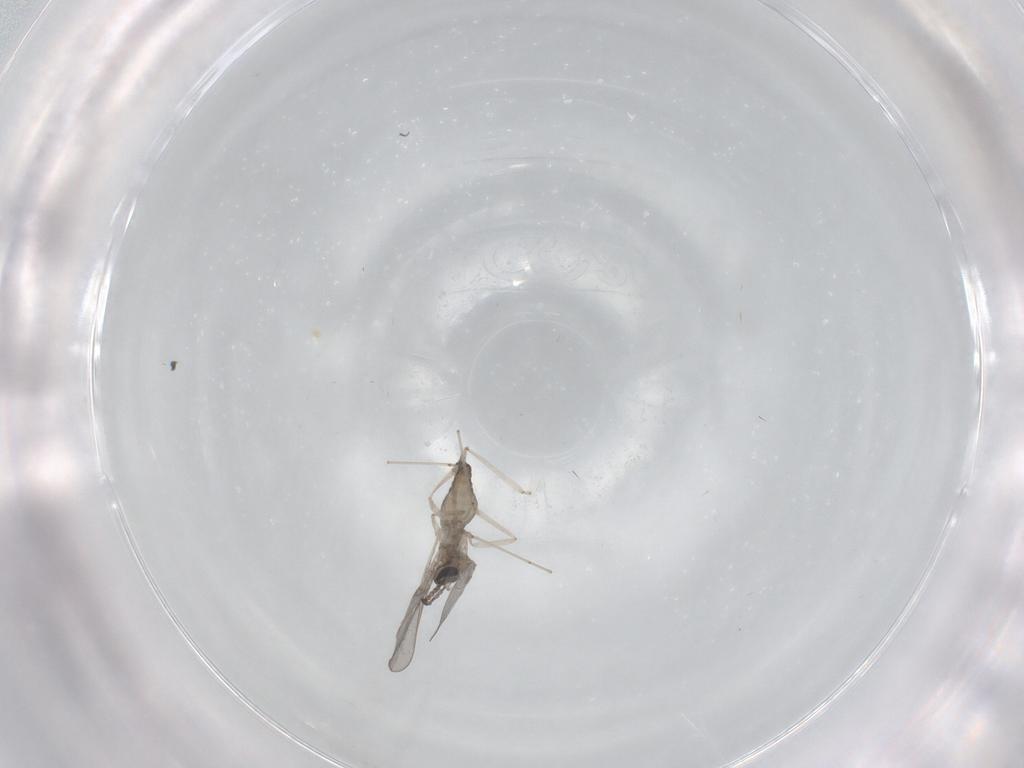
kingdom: Animalia
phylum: Arthropoda
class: Insecta
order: Diptera
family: Cecidomyiidae
